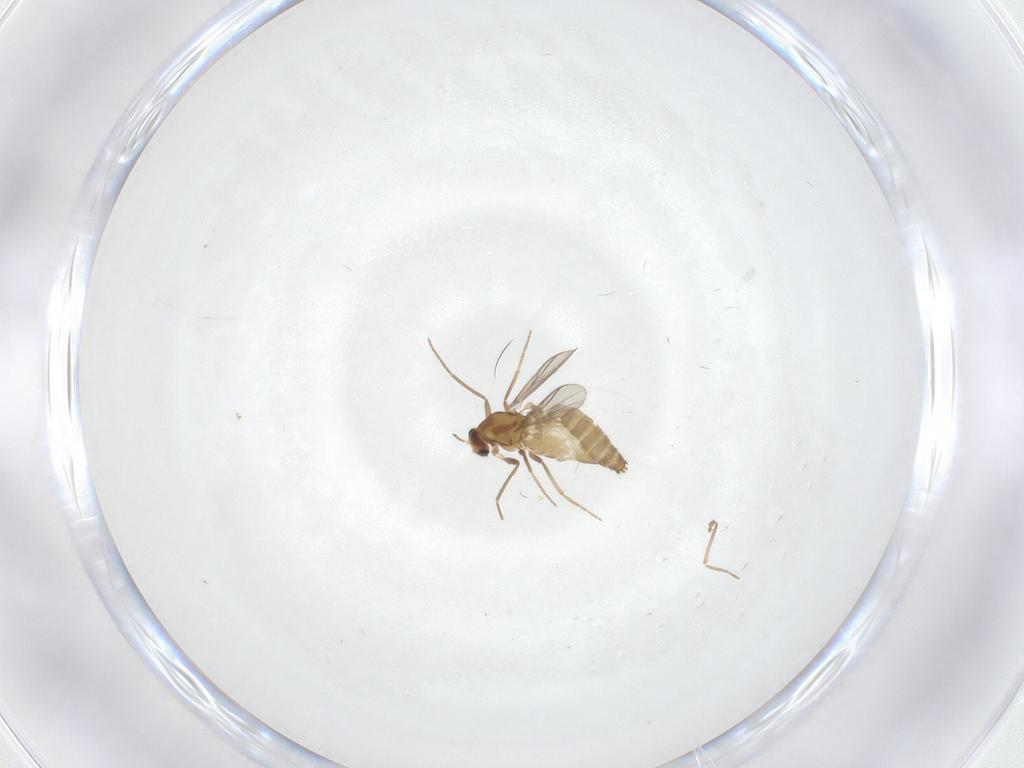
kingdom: Animalia
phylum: Arthropoda
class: Insecta
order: Diptera
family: Chironomidae
